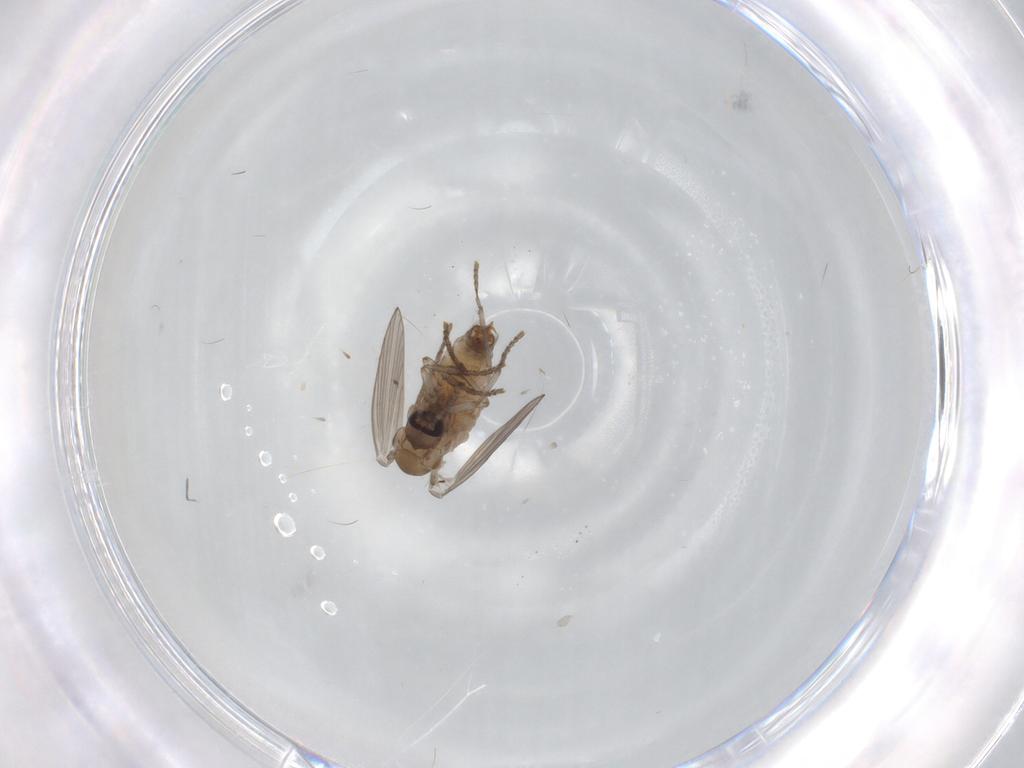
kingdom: Animalia
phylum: Arthropoda
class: Insecta
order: Diptera
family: Psychodidae
